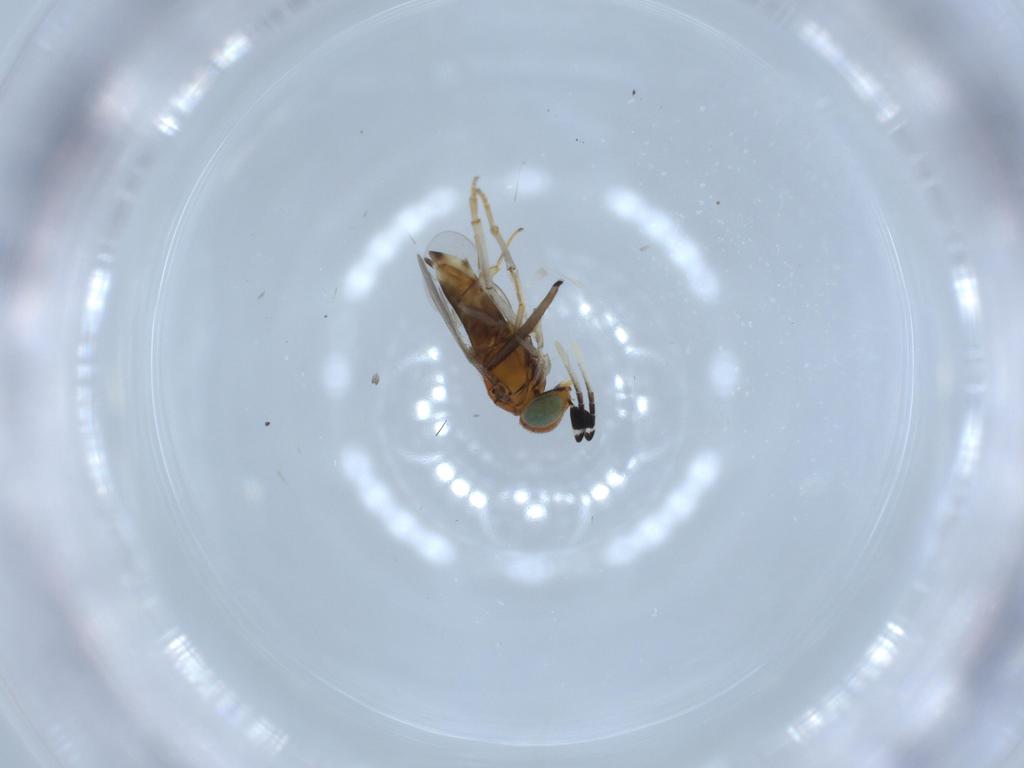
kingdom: Animalia
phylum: Arthropoda
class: Insecta
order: Hymenoptera
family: Encyrtidae
